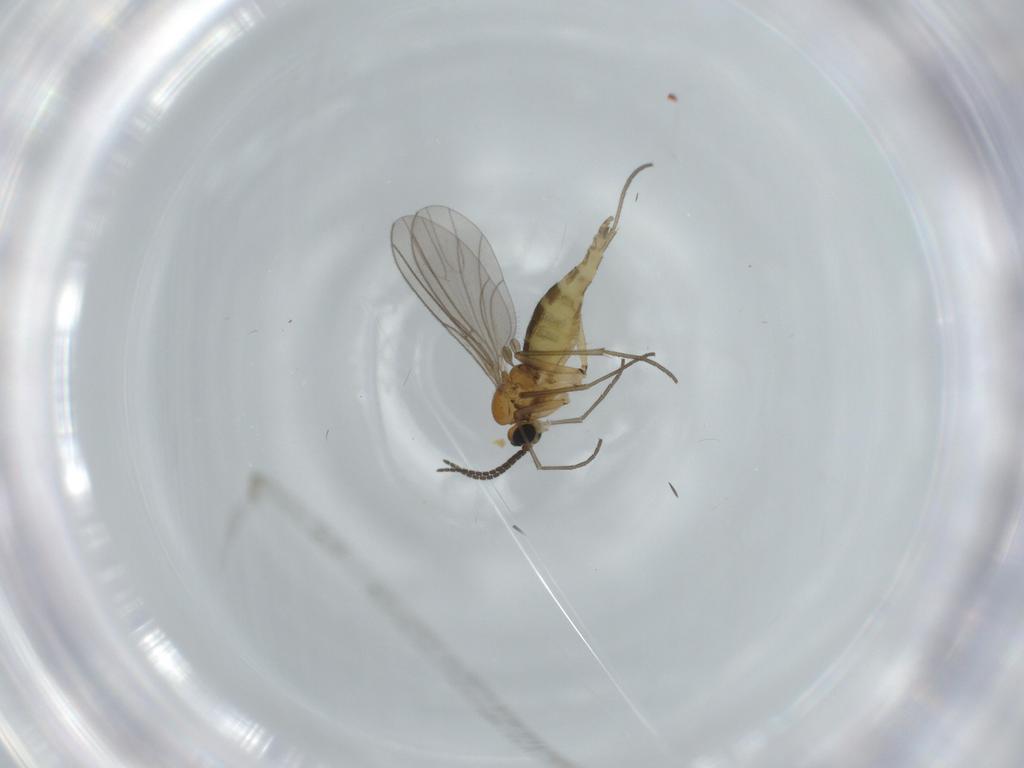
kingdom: Animalia
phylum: Arthropoda
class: Insecta
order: Diptera
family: Sciaridae
